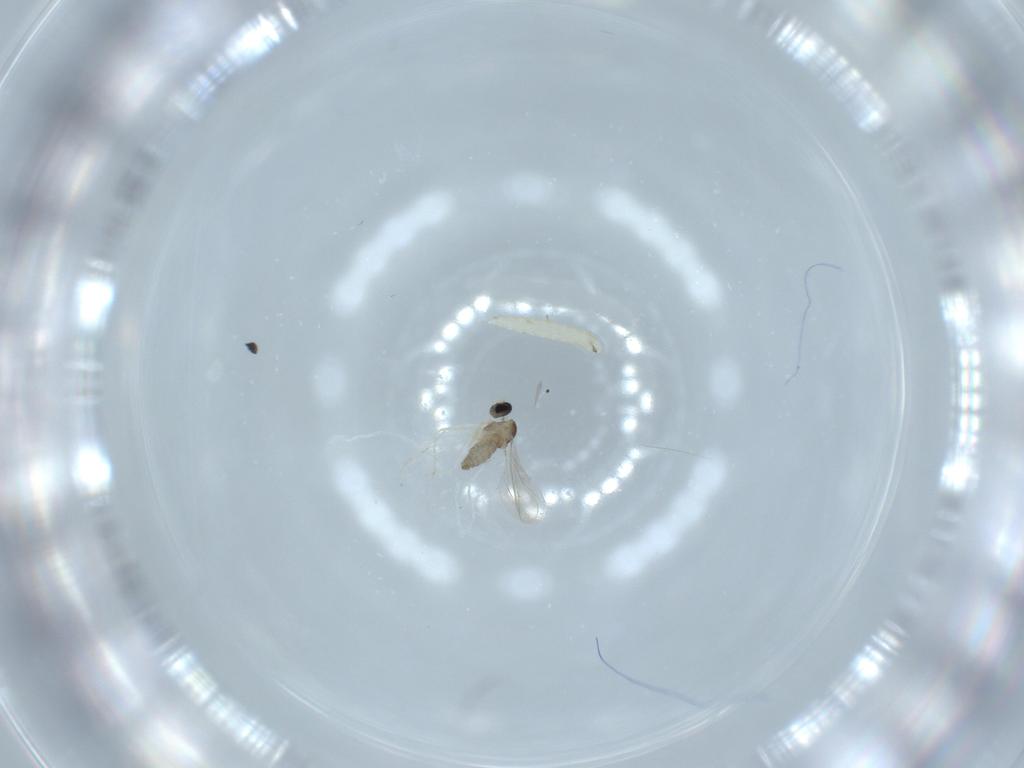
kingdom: Animalia
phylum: Arthropoda
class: Insecta
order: Diptera
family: Cecidomyiidae
